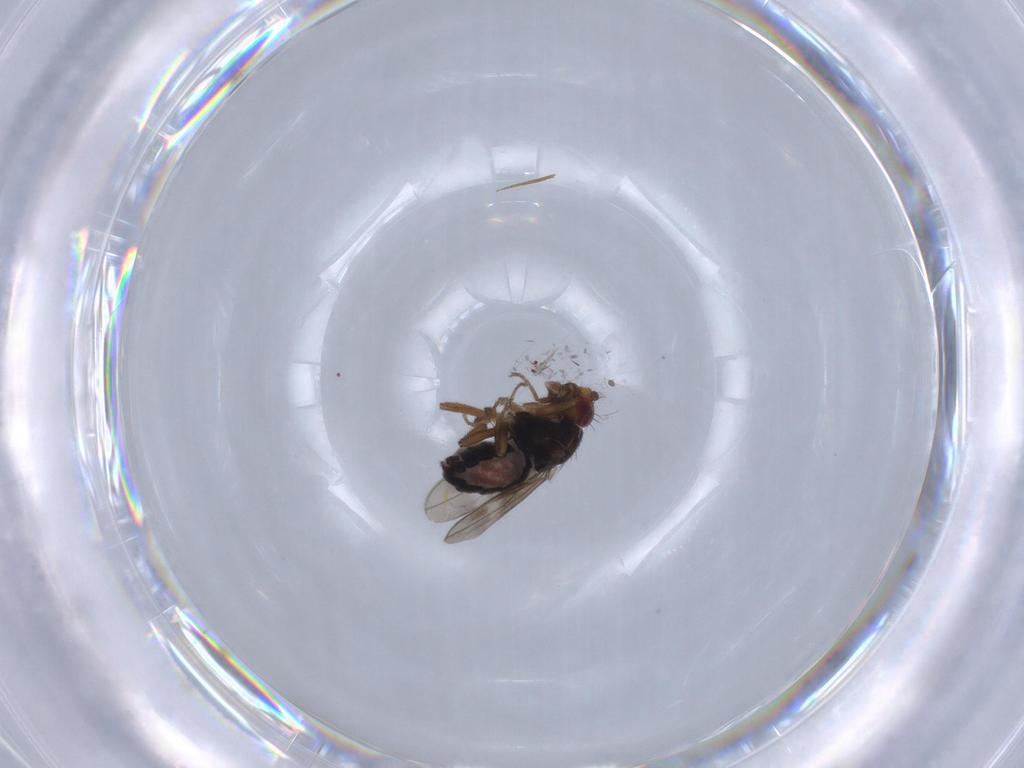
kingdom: Animalia
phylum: Arthropoda
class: Insecta
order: Diptera
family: Sphaeroceridae
